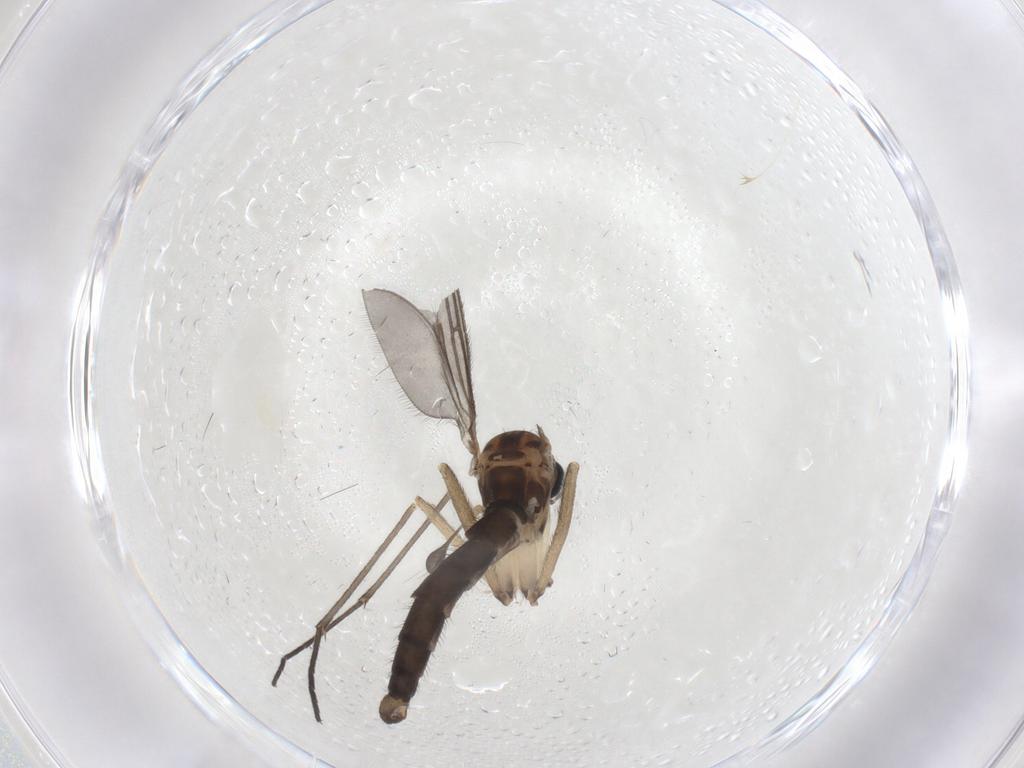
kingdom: Animalia
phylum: Arthropoda
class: Insecta
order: Diptera
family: Sciaridae
